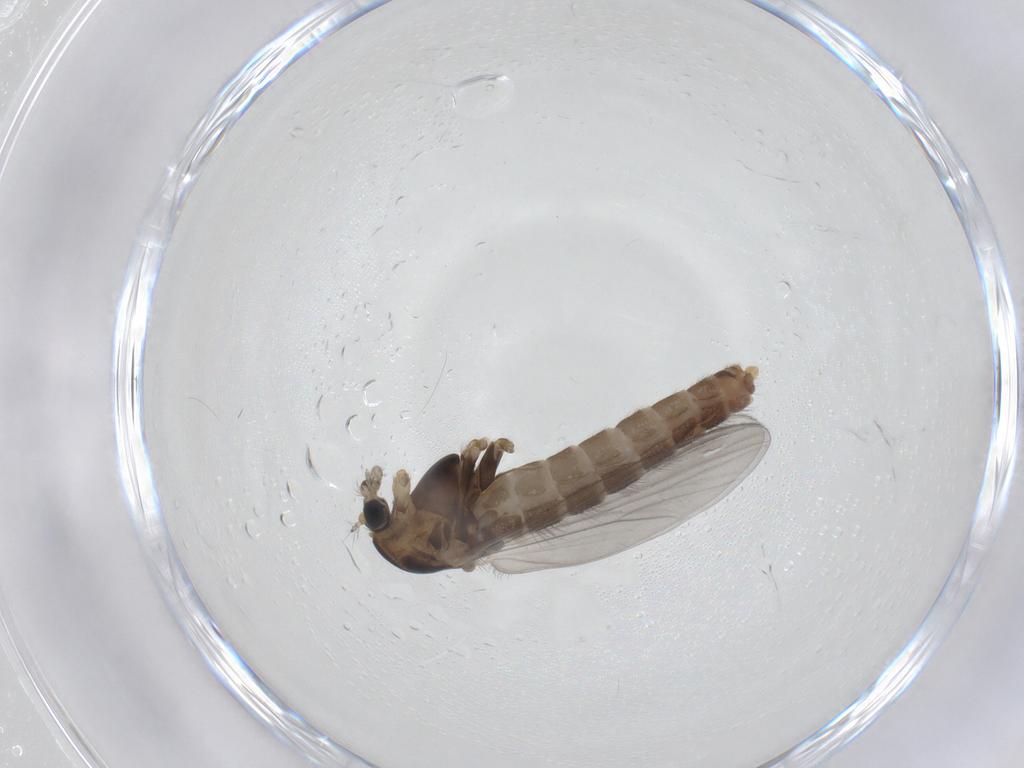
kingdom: Animalia
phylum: Arthropoda
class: Insecta
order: Diptera
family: Chironomidae
